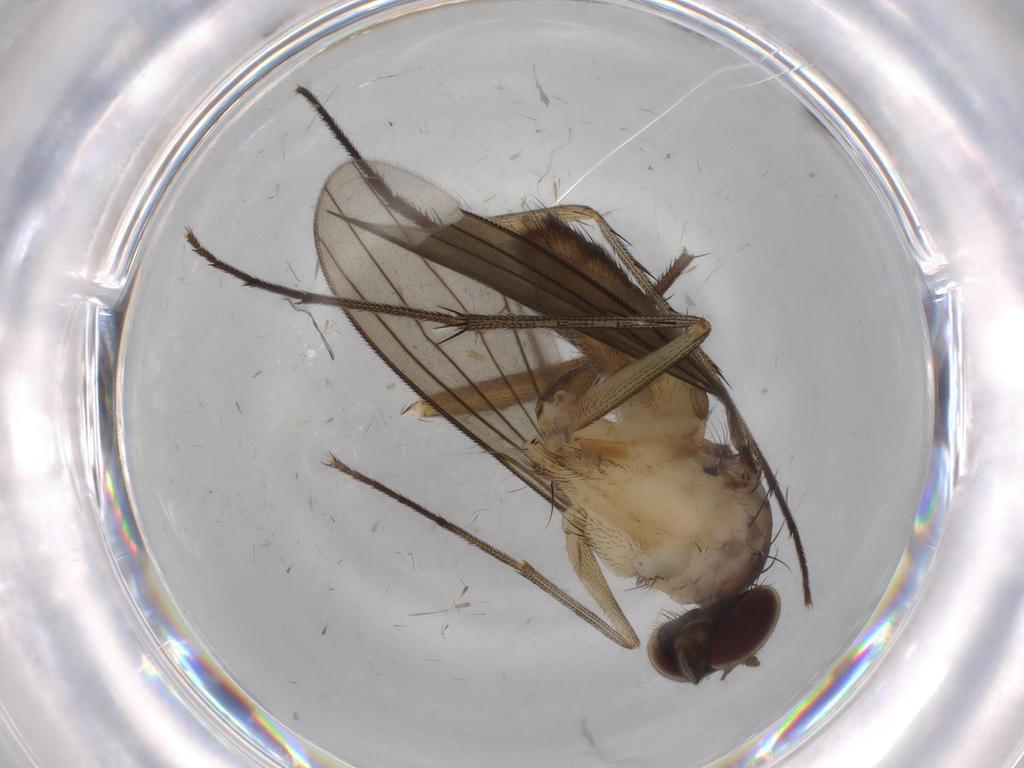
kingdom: Animalia
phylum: Arthropoda
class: Insecta
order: Diptera
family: Dolichopodidae
